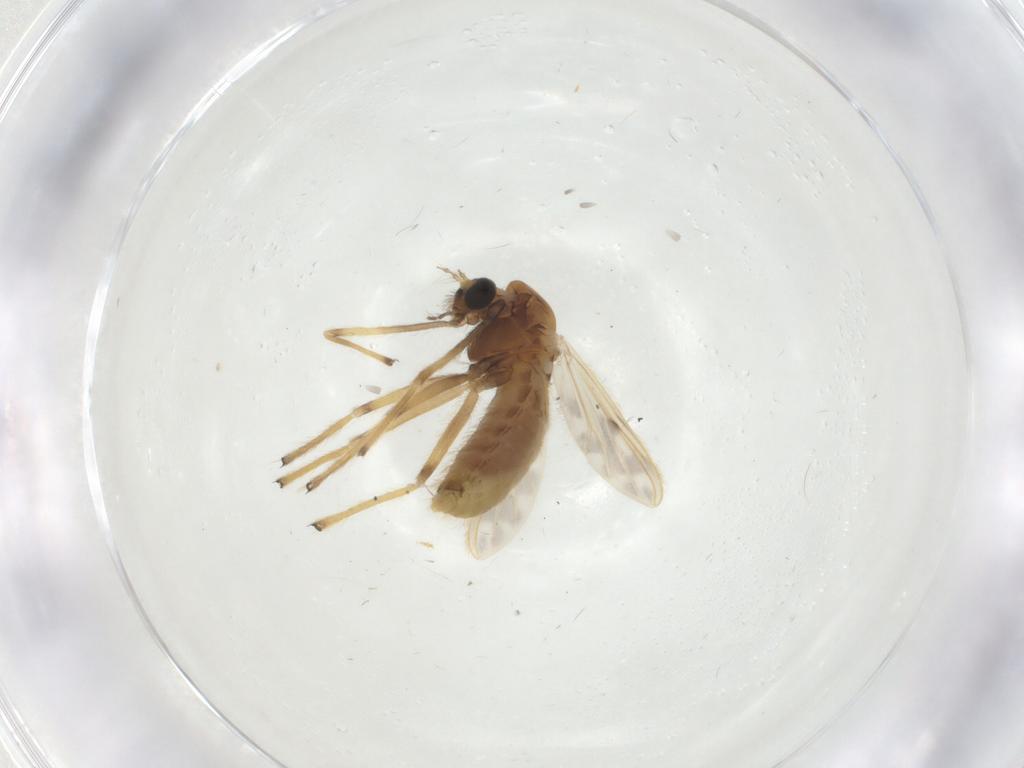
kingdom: Animalia
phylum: Arthropoda
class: Insecta
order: Diptera
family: Chironomidae
